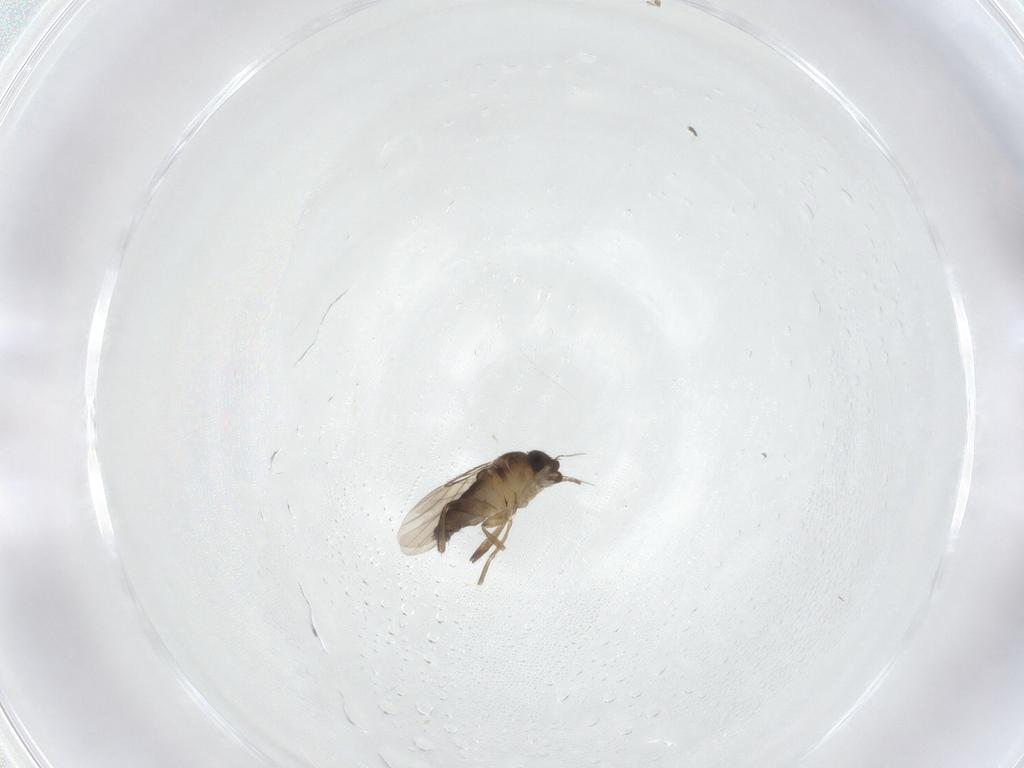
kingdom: Animalia
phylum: Arthropoda
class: Insecta
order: Diptera
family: Phoridae
